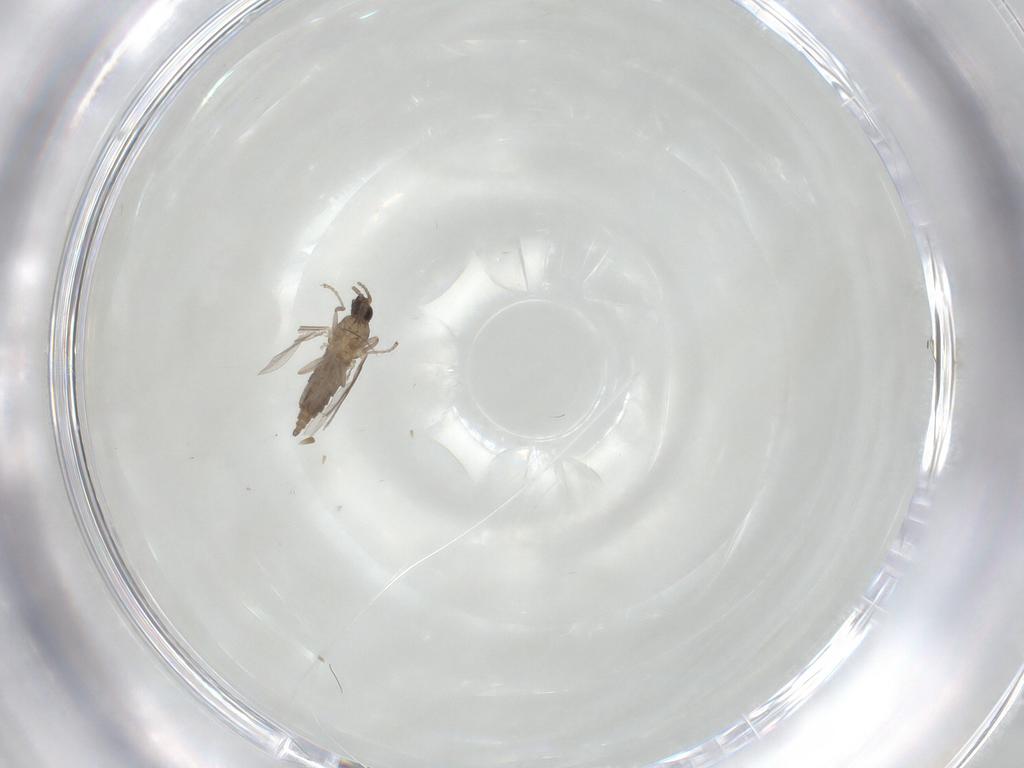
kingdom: Animalia
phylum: Arthropoda
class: Insecta
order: Diptera
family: Cecidomyiidae
